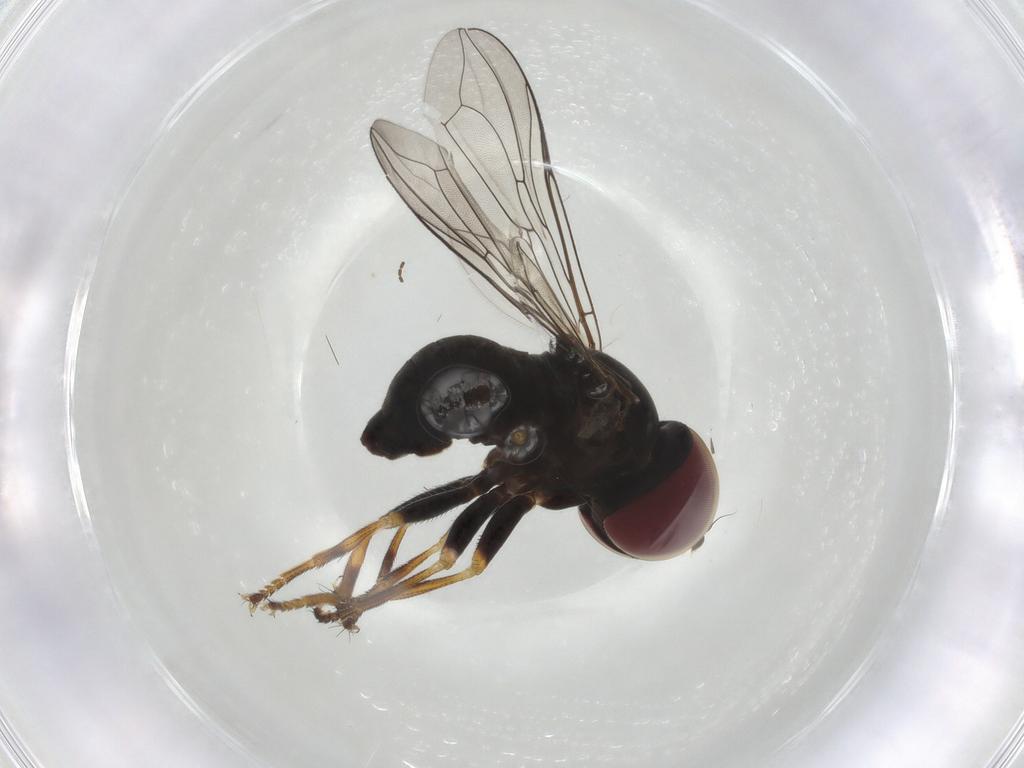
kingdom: Animalia
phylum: Arthropoda
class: Insecta
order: Diptera
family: Pipunculidae
